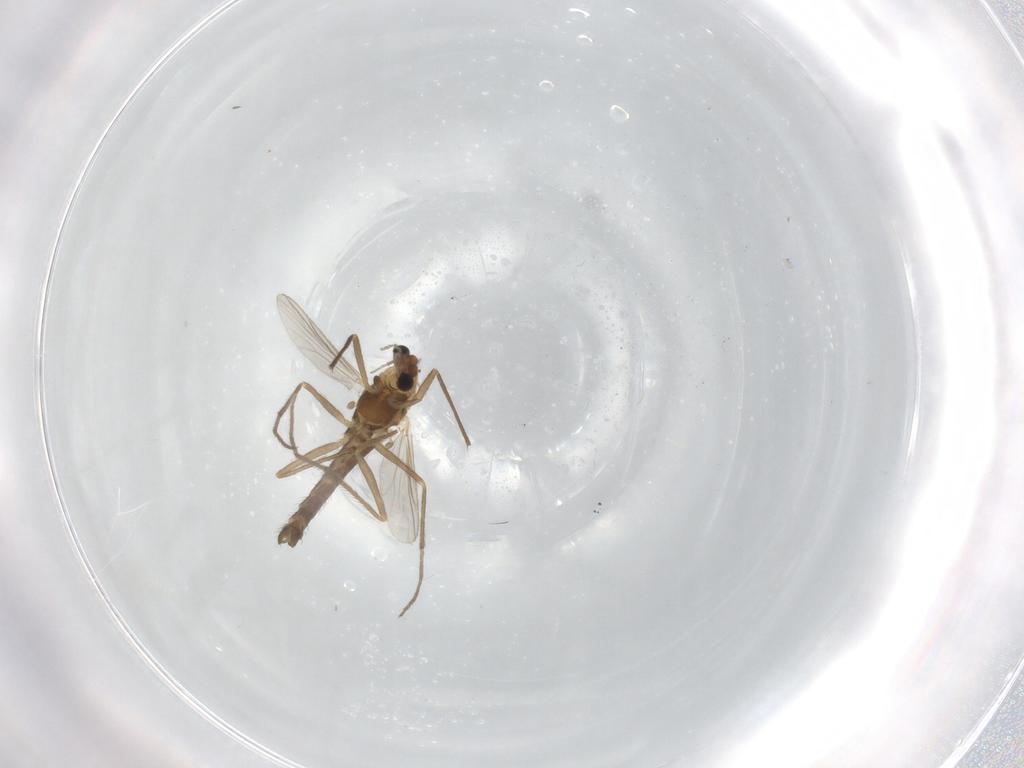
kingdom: Animalia
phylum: Arthropoda
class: Insecta
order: Diptera
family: Chironomidae
